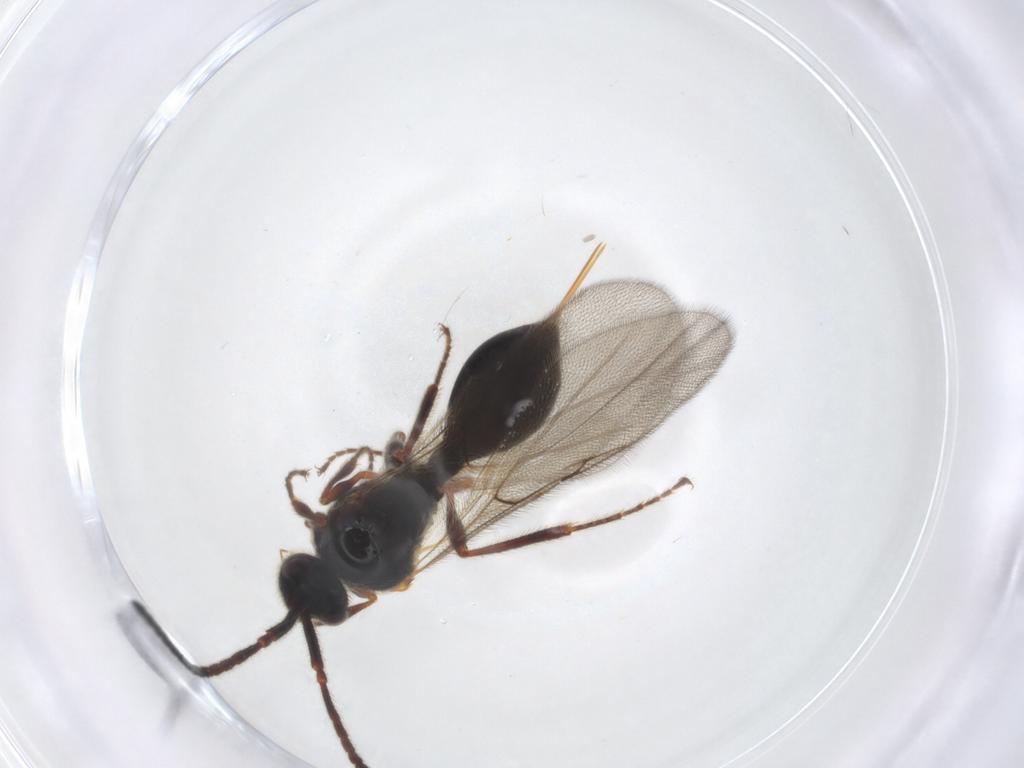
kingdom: Animalia
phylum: Arthropoda
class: Insecta
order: Hymenoptera
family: Diapriidae
